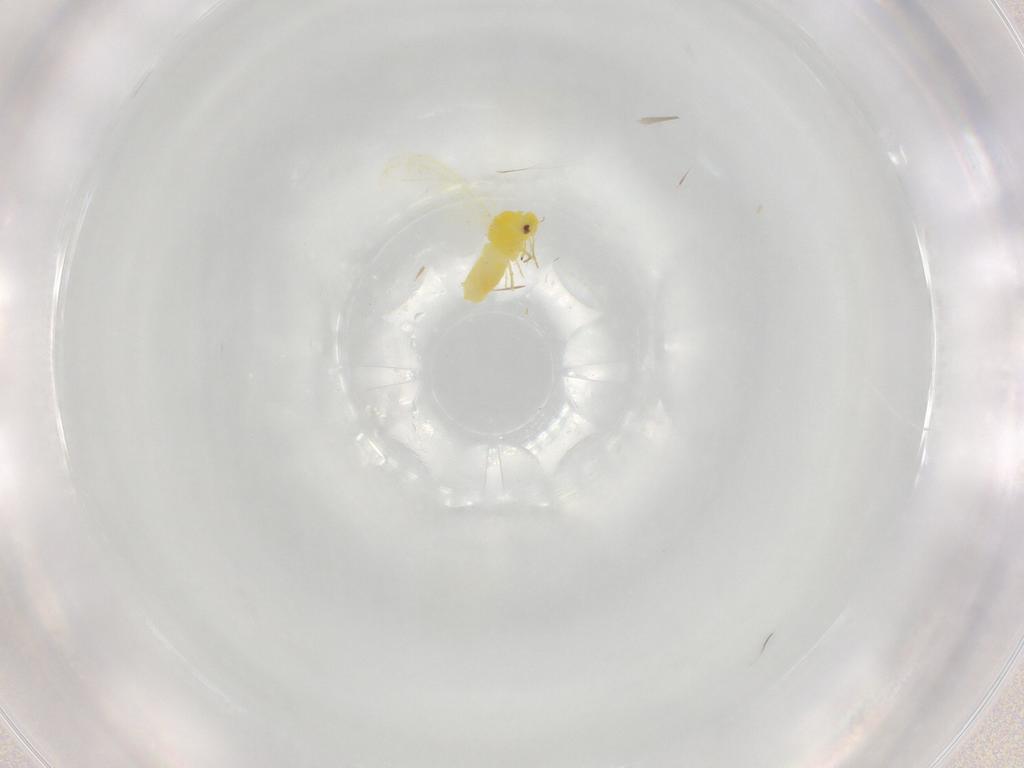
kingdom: Animalia
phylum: Arthropoda
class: Insecta
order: Hemiptera
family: Aleyrodidae
